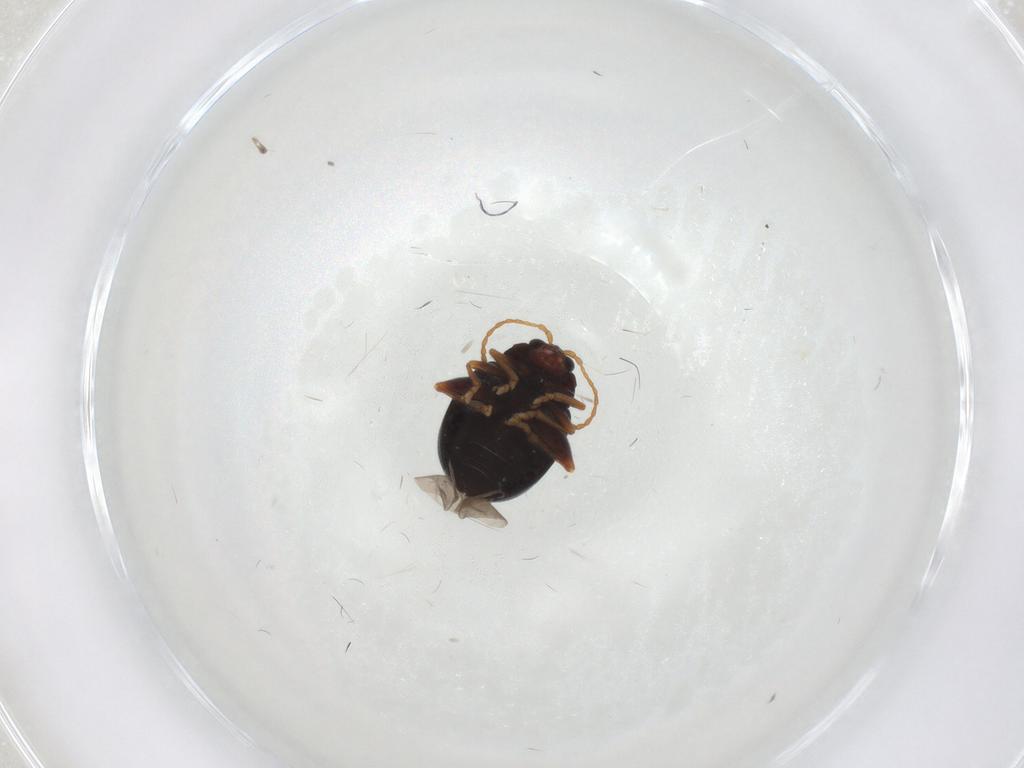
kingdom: Animalia
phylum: Arthropoda
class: Insecta
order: Coleoptera
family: Chrysomelidae
